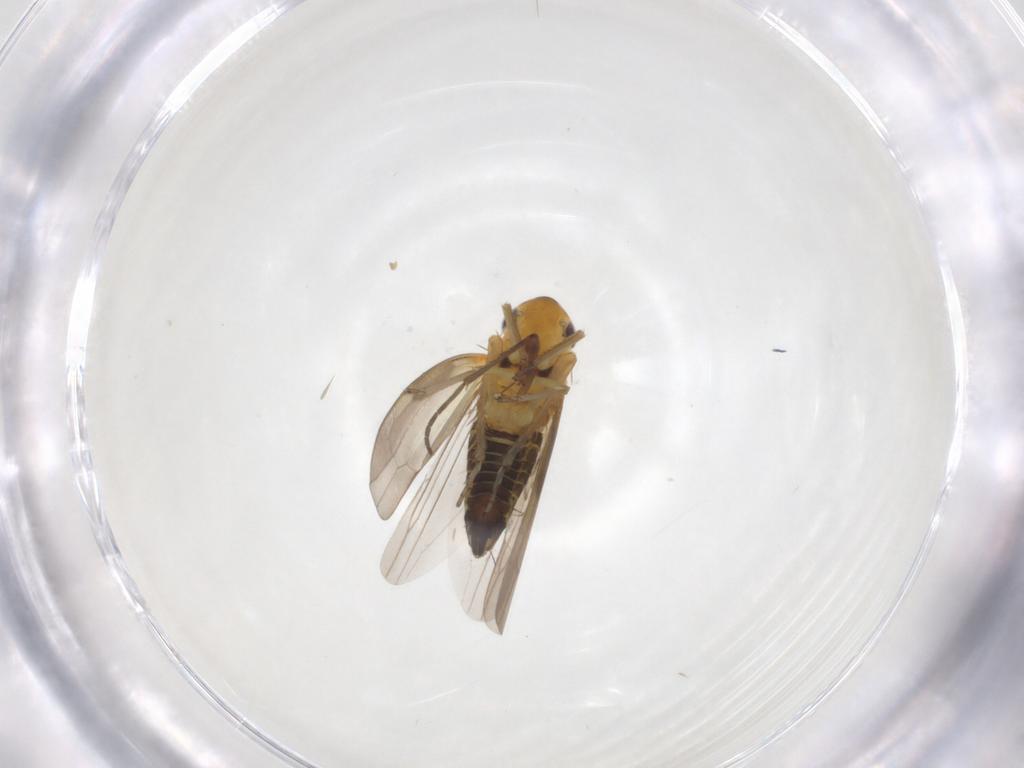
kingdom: Animalia
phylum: Arthropoda
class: Insecta
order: Hemiptera
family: Cicadellidae
